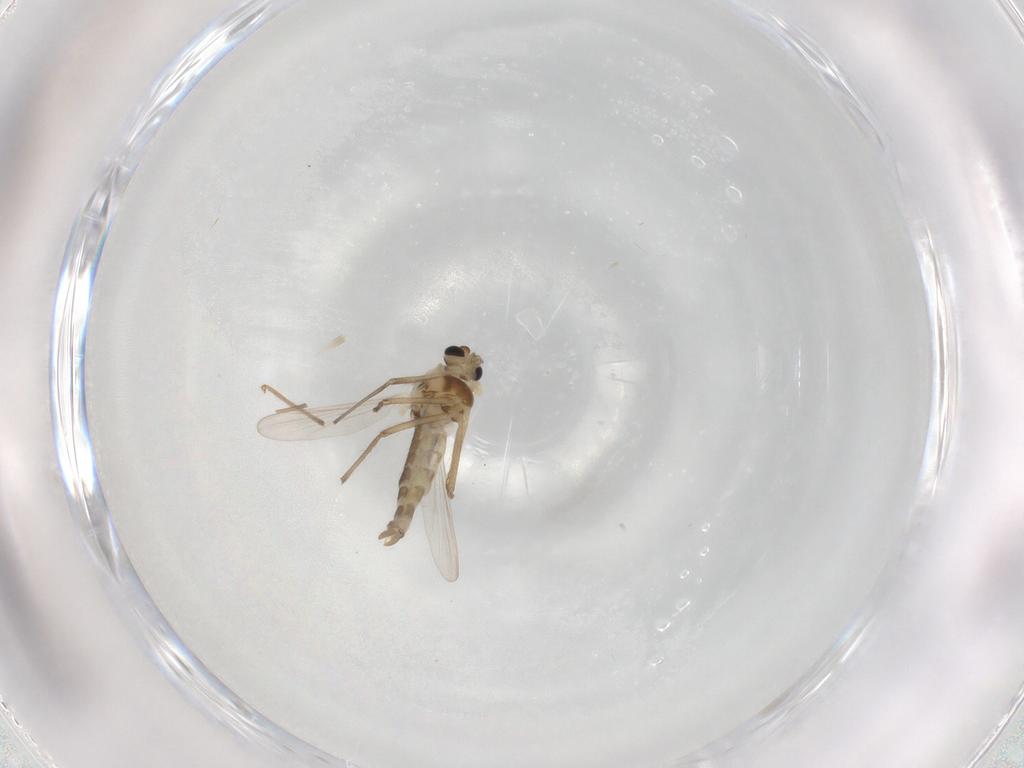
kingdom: Animalia
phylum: Arthropoda
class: Insecta
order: Diptera
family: Chironomidae
